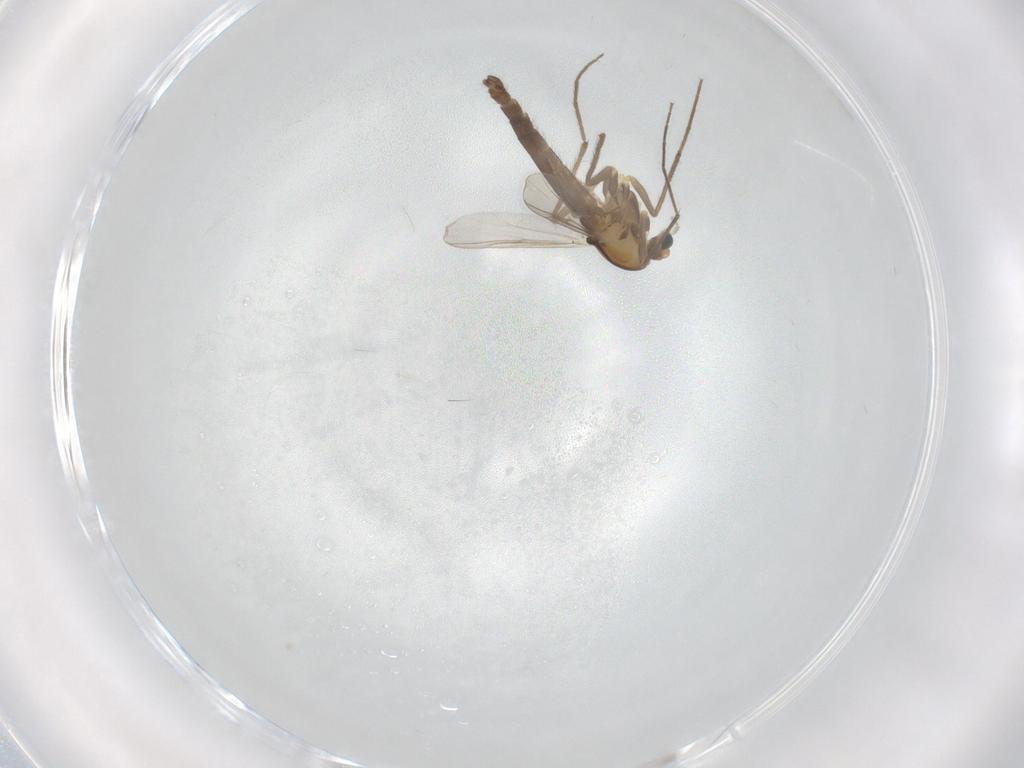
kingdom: Animalia
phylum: Arthropoda
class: Insecta
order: Diptera
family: Chironomidae
